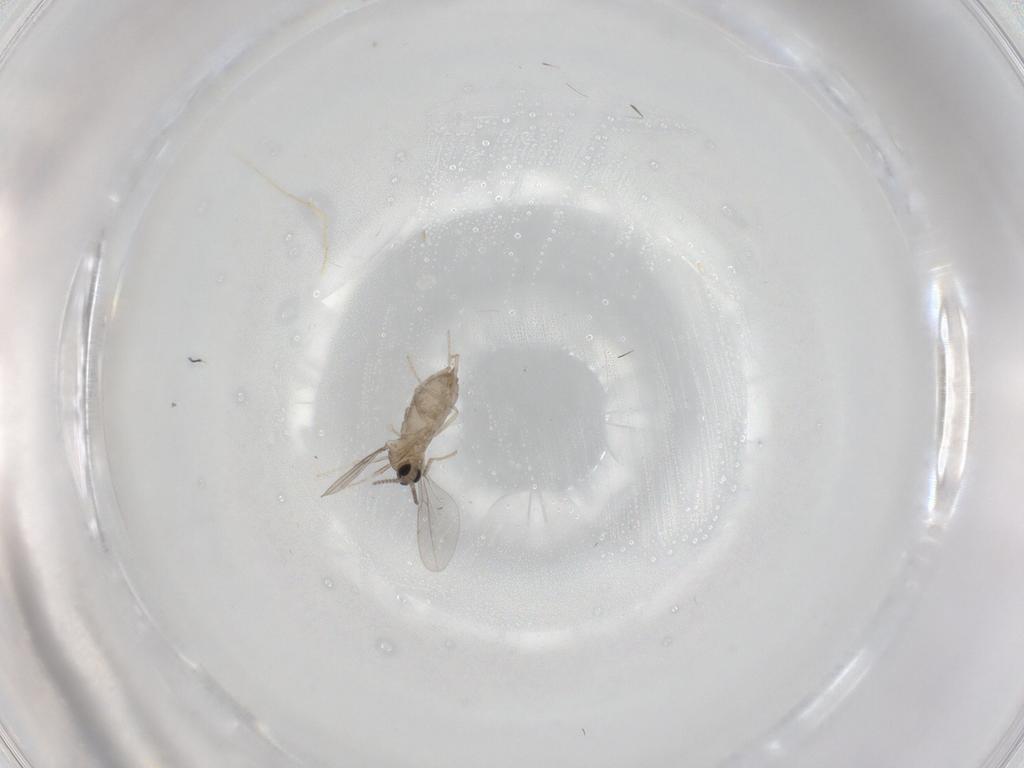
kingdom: Animalia
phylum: Arthropoda
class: Insecta
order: Diptera
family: Cecidomyiidae
